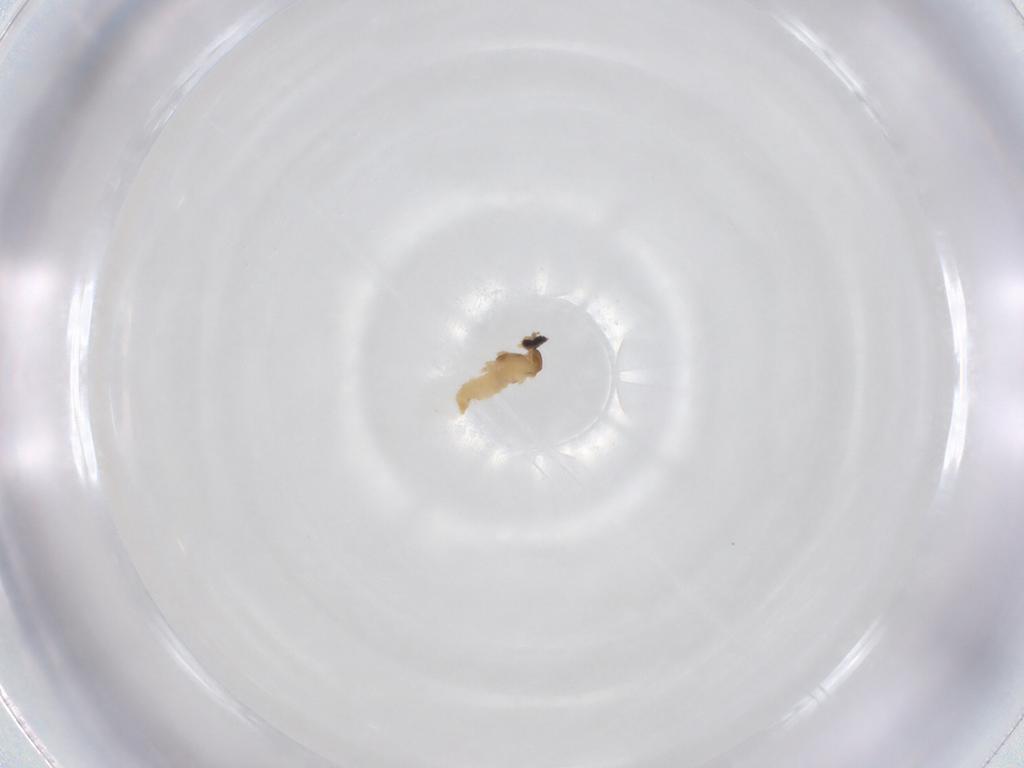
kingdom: Animalia
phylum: Arthropoda
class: Insecta
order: Diptera
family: Cecidomyiidae
